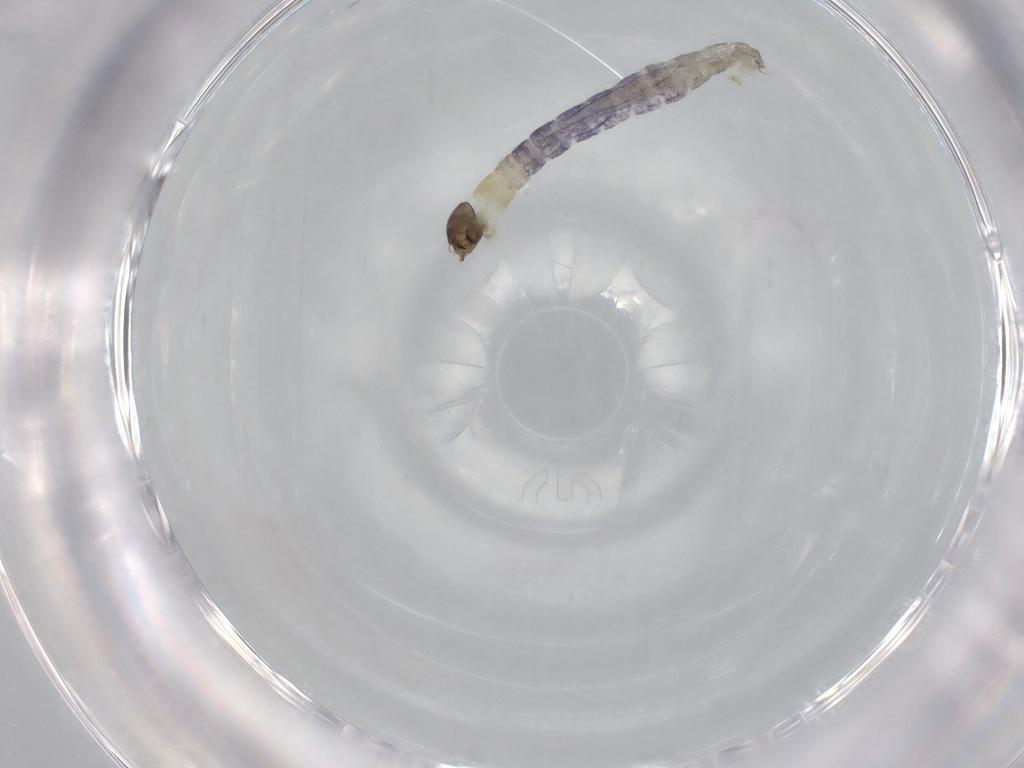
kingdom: Animalia
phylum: Arthropoda
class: Insecta
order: Diptera
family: Chironomidae
